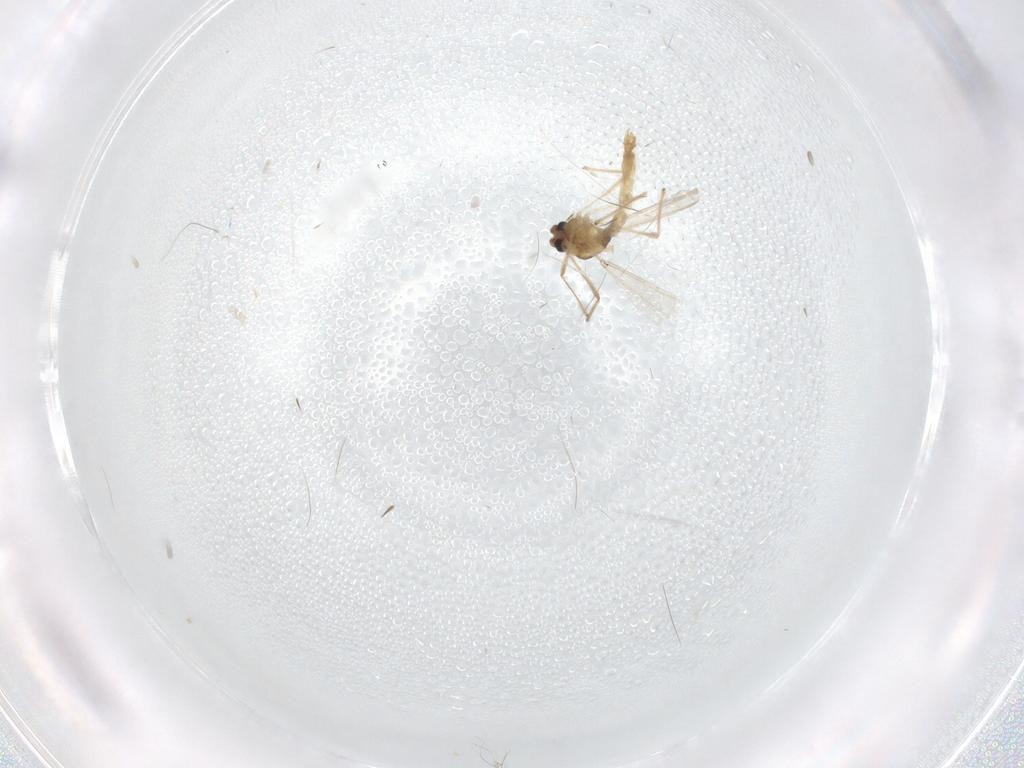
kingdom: Animalia
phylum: Arthropoda
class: Insecta
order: Diptera
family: Chironomidae
